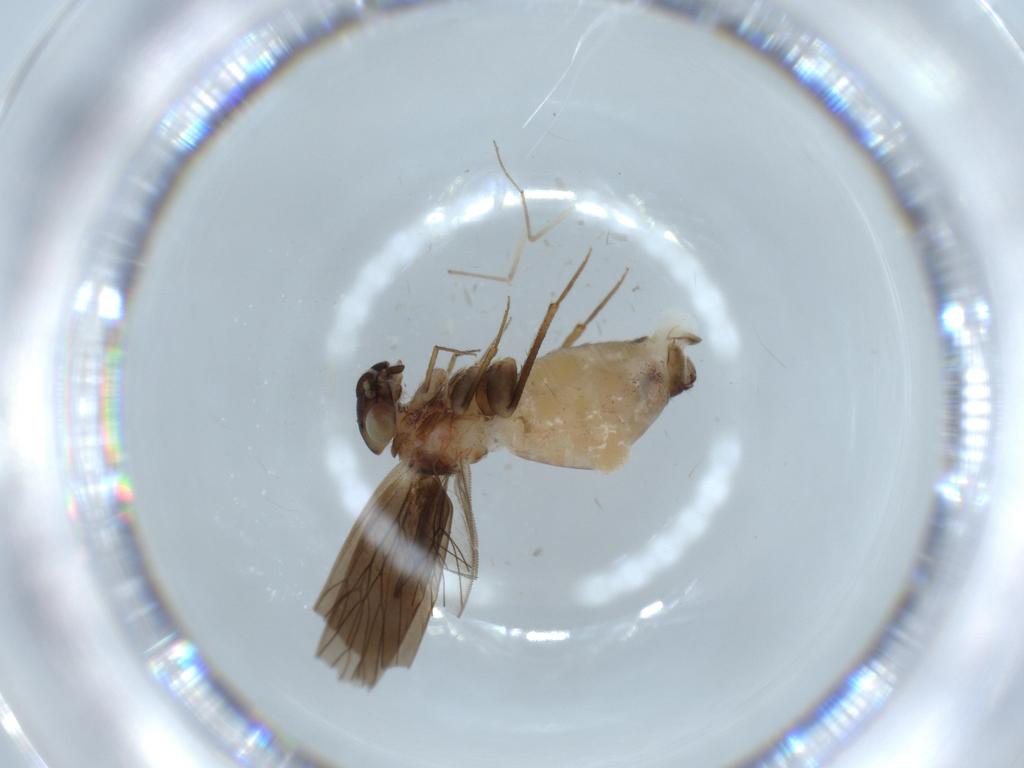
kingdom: Animalia
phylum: Arthropoda
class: Insecta
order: Psocodea
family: Lepidopsocidae
